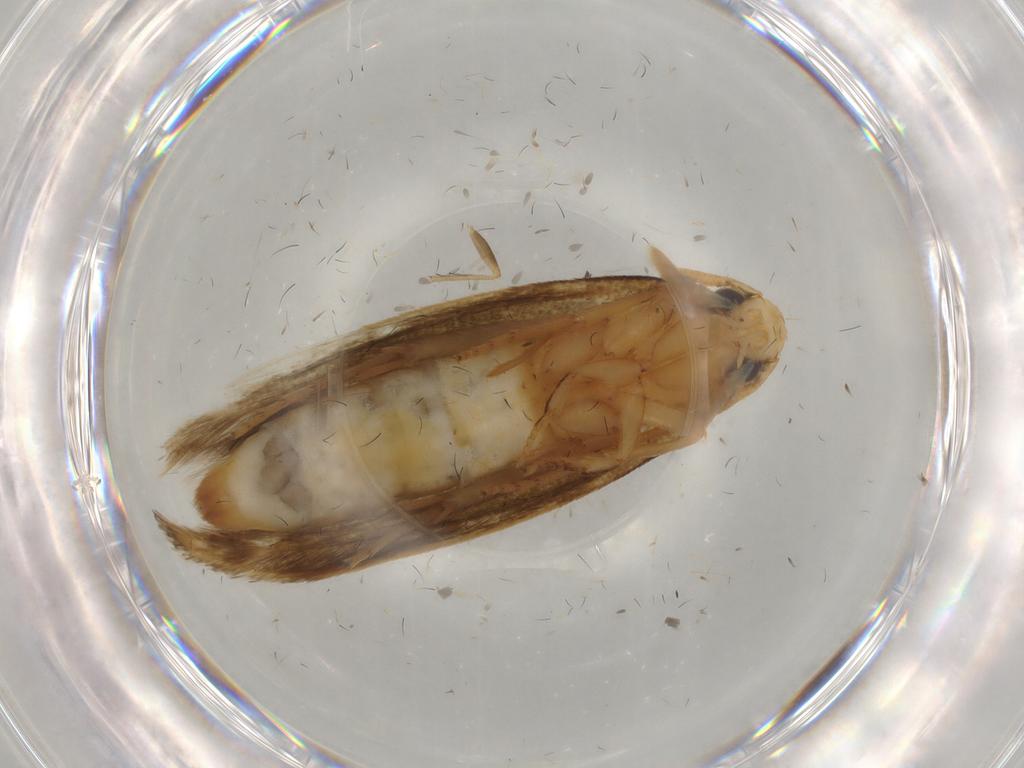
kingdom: Animalia
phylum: Arthropoda
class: Insecta
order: Lepidoptera
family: Tineidae
